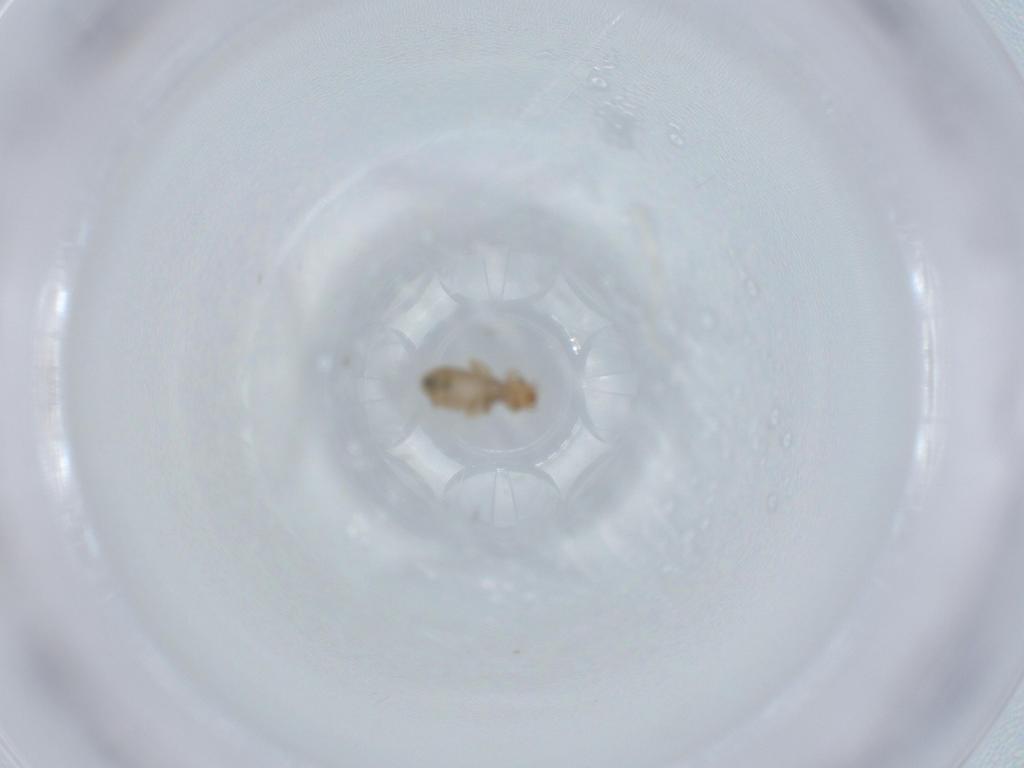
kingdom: Animalia
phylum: Arthropoda
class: Insecta
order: Psocodea
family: Liposcelididae
